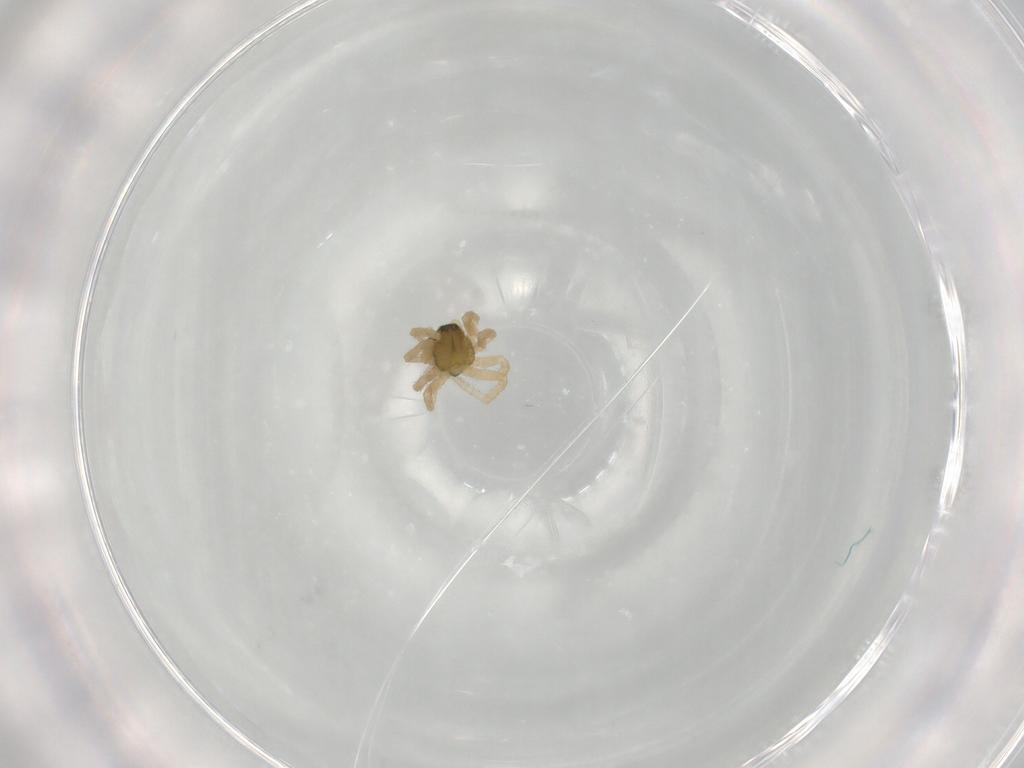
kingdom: Animalia
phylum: Arthropoda
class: Arachnida
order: Araneae
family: Linyphiidae
